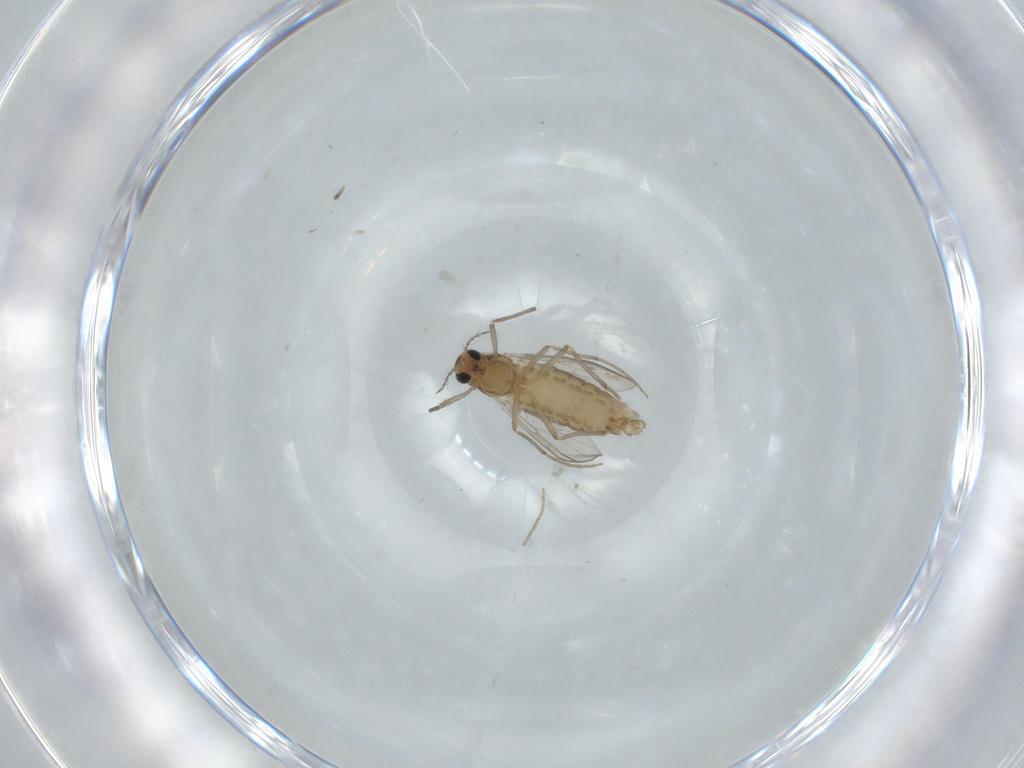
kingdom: Animalia
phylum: Arthropoda
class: Insecta
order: Diptera
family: Chironomidae
